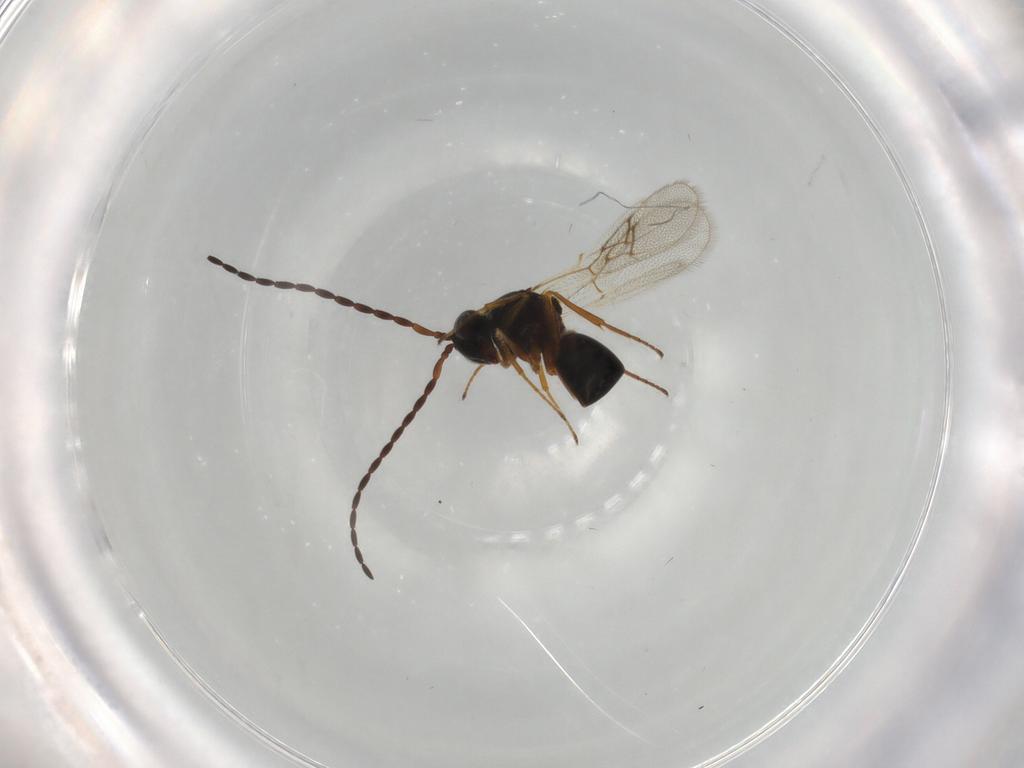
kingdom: Animalia
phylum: Arthropoda
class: Insecta
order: Hymenoptera
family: Figitidae
